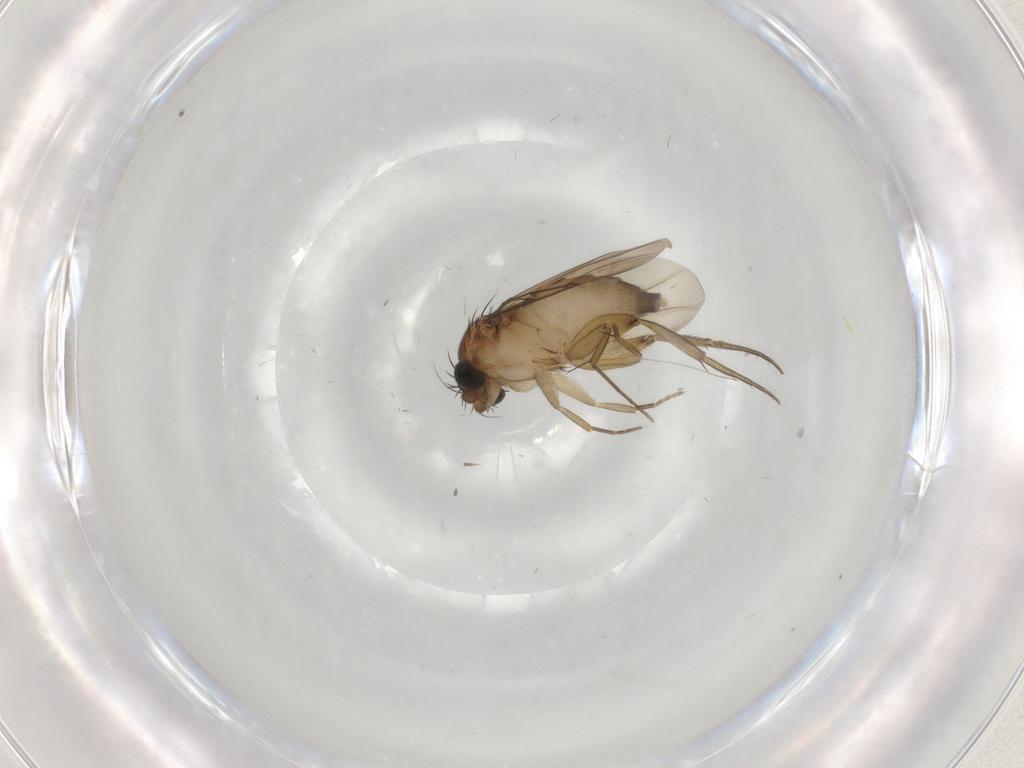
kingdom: Animalia
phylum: Arthropoda
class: Insecta
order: Diptera
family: Phoridae
